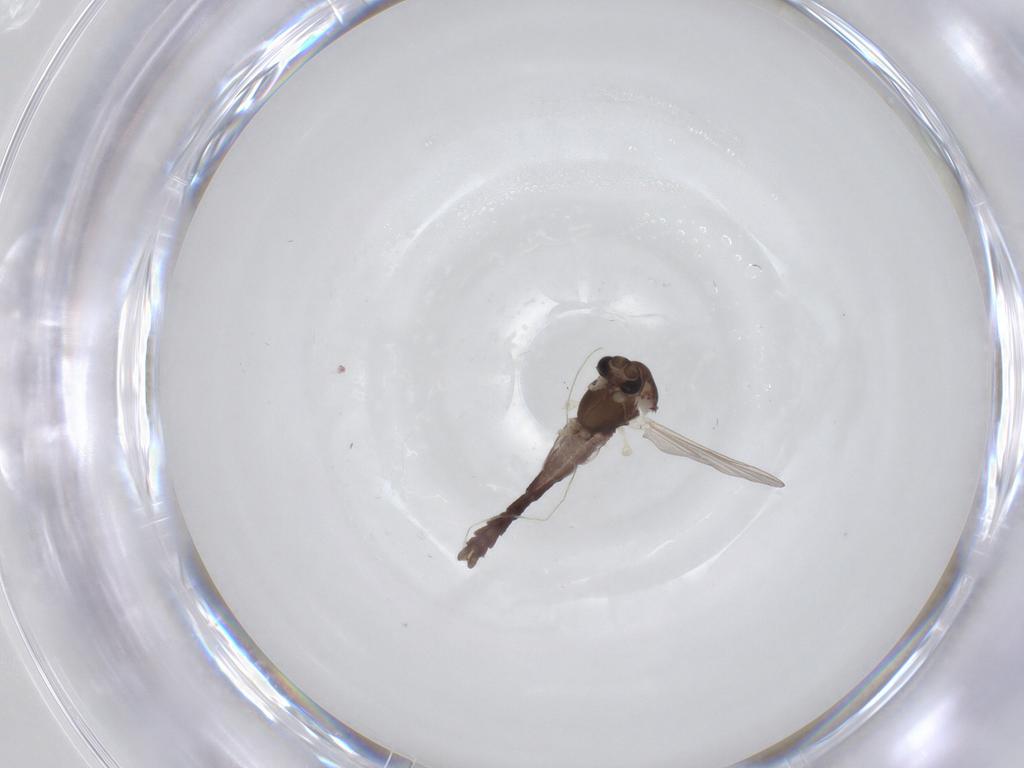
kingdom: Animalia
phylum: Arthropoda
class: Insecta
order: Diptera
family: Chironomidae
